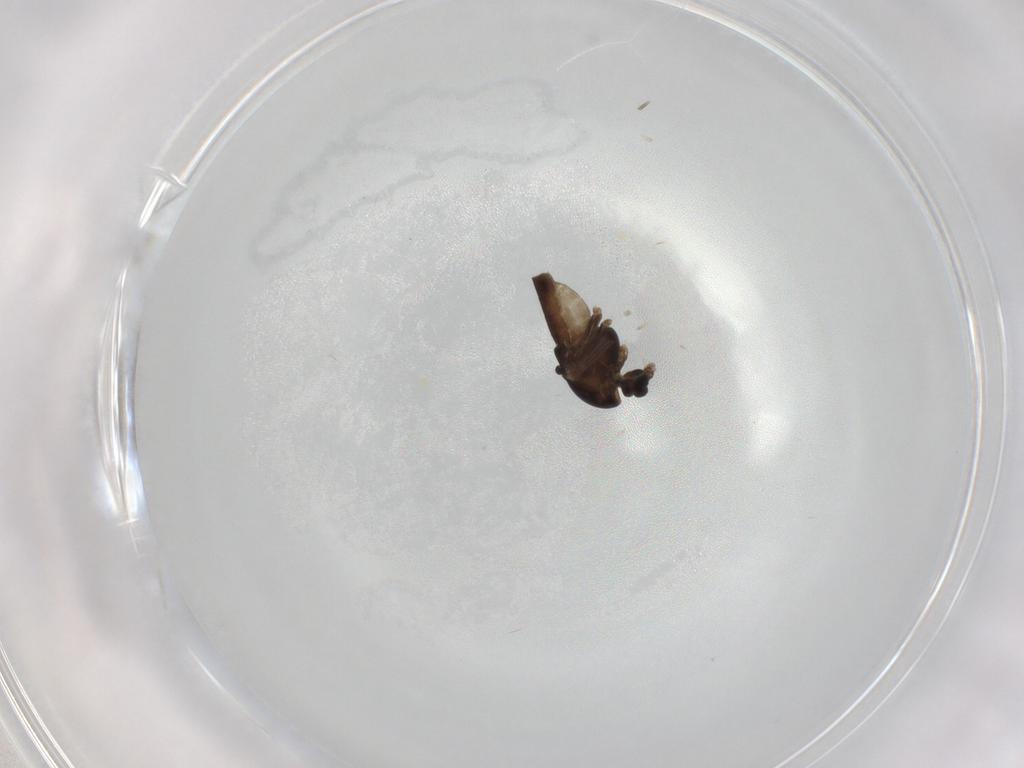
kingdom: Animalia
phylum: Arthropoda
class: Insecta
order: Diptera
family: Chironomidae
